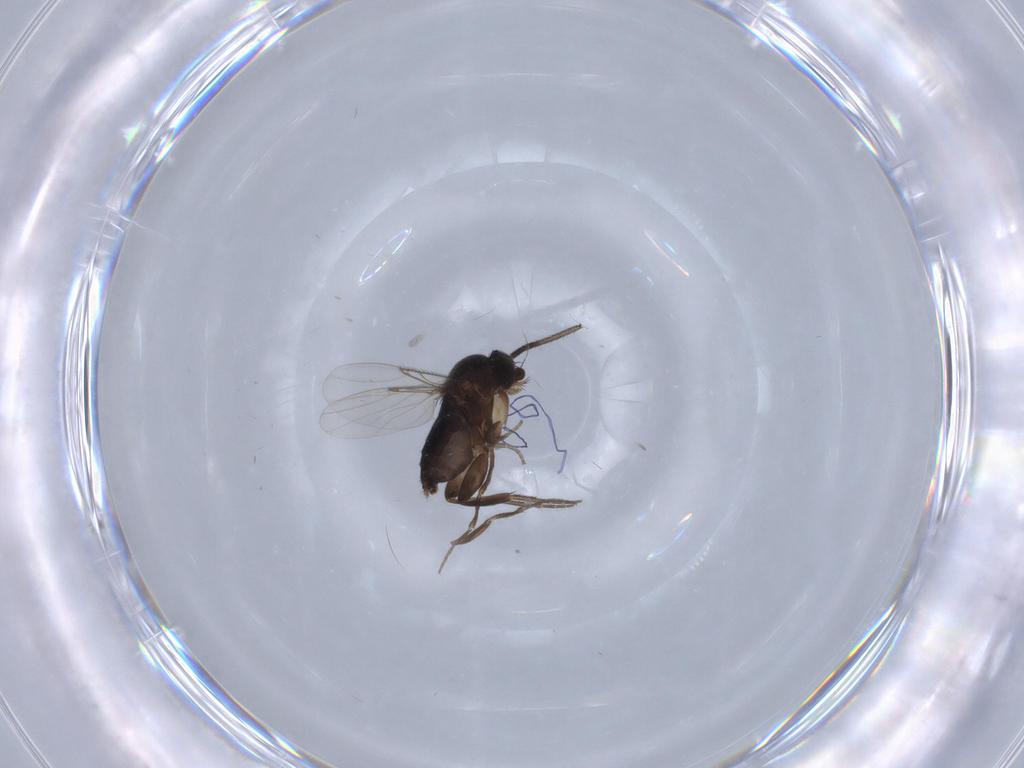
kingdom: Animalia
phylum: Arthropoda
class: Insecta
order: Diptera
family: Phoridae
